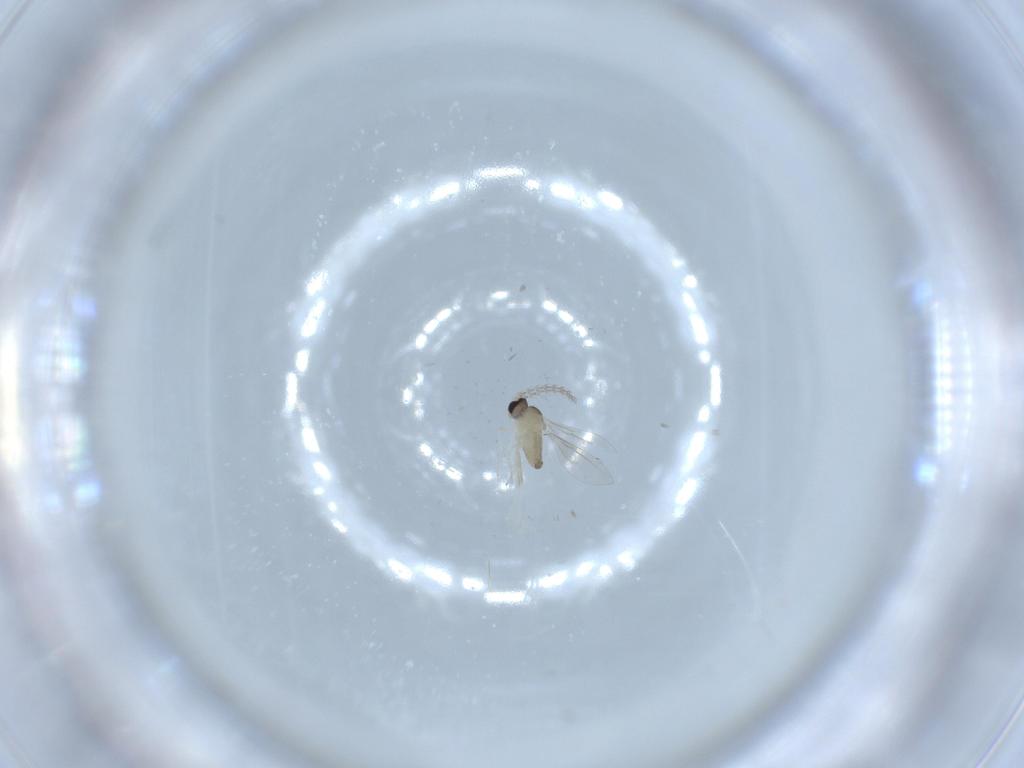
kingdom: Animalia
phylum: Arthropoda
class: Insecta
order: Diptera
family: Cecidomyiidae
